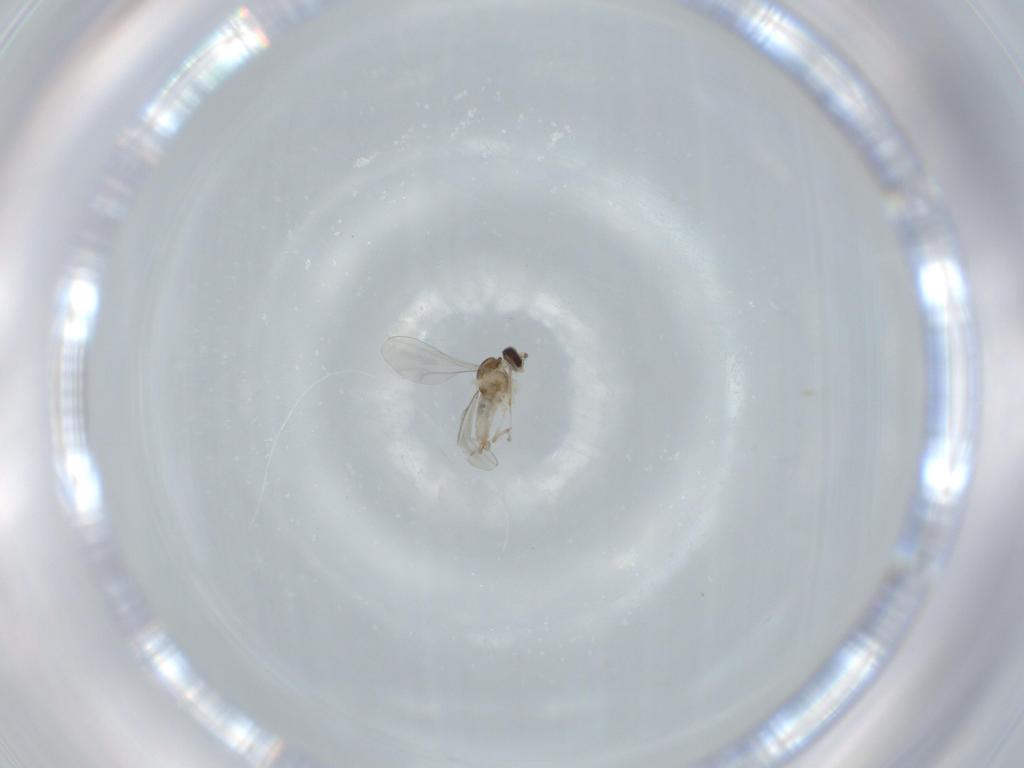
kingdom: Animalia
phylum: Arthropoda
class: Insecta
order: Diptera
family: Cecidomyiidae
